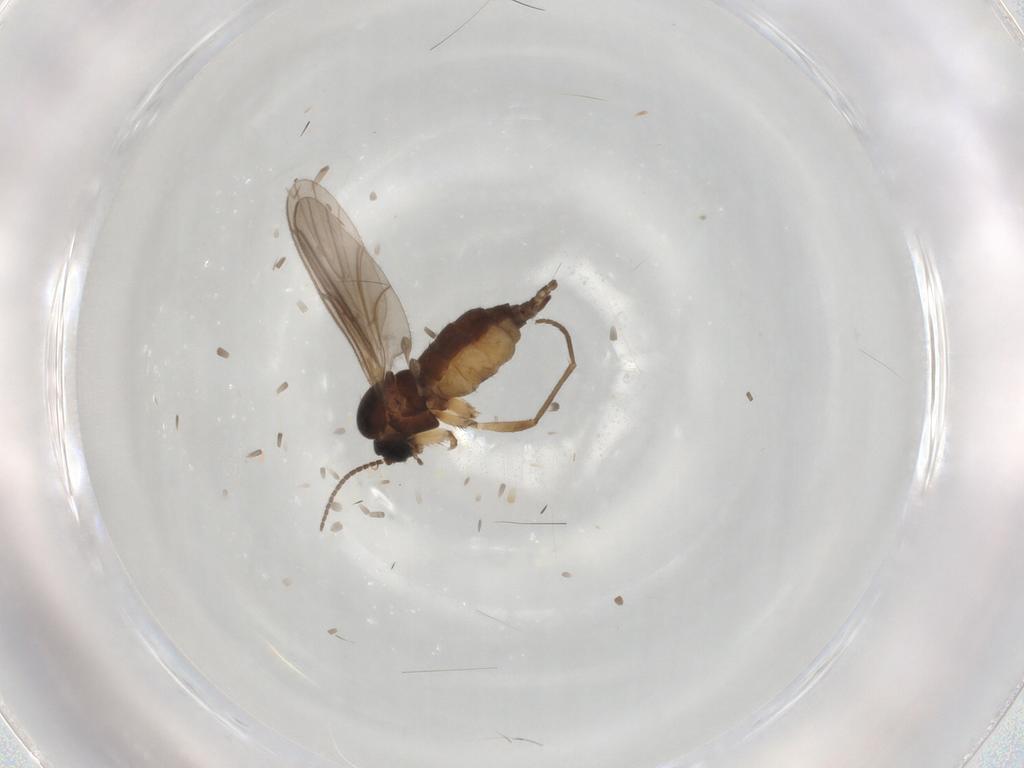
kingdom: Animalia
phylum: Arthropoda
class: Insecta
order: Diptera
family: Sciaridae
